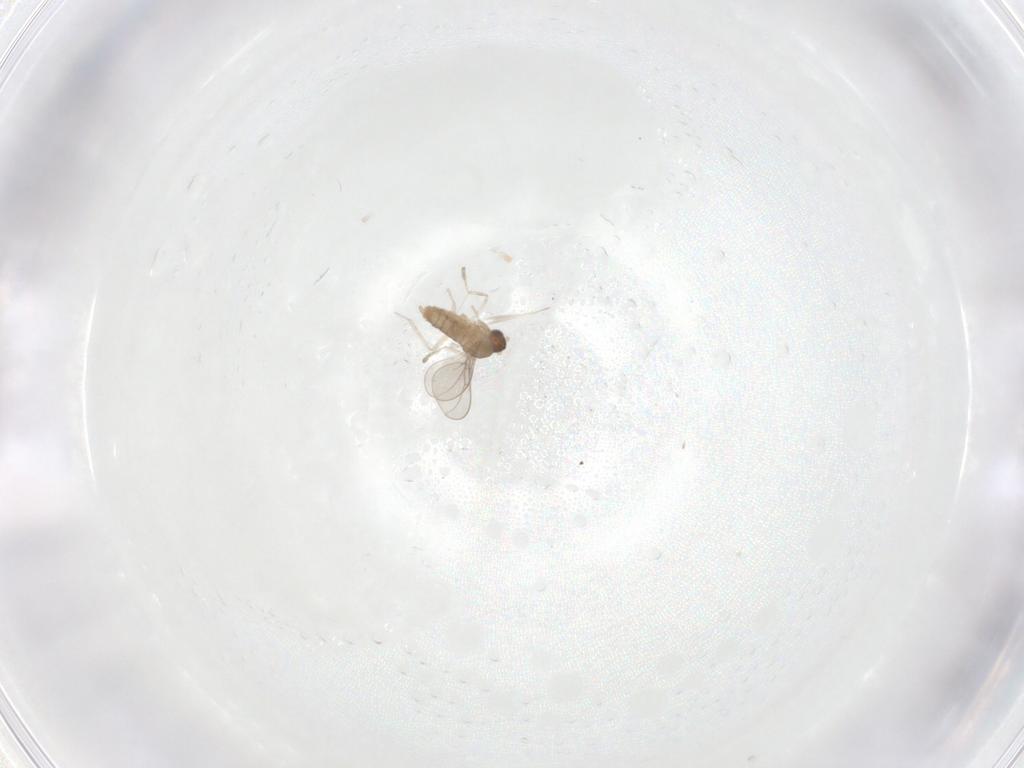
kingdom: Animalia
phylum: Arthropoda
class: Insecta
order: Diptera
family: Cecidomyiidae
